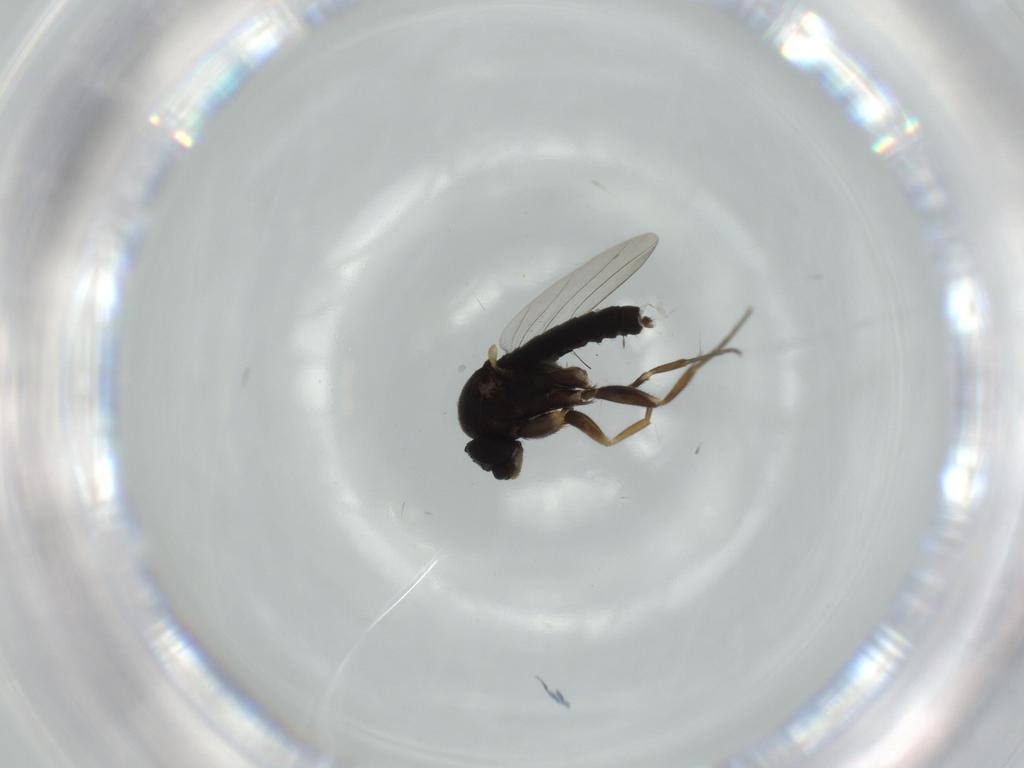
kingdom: Animalia
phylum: Arthropoda
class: Insecta
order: Diptera
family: Phoridae
